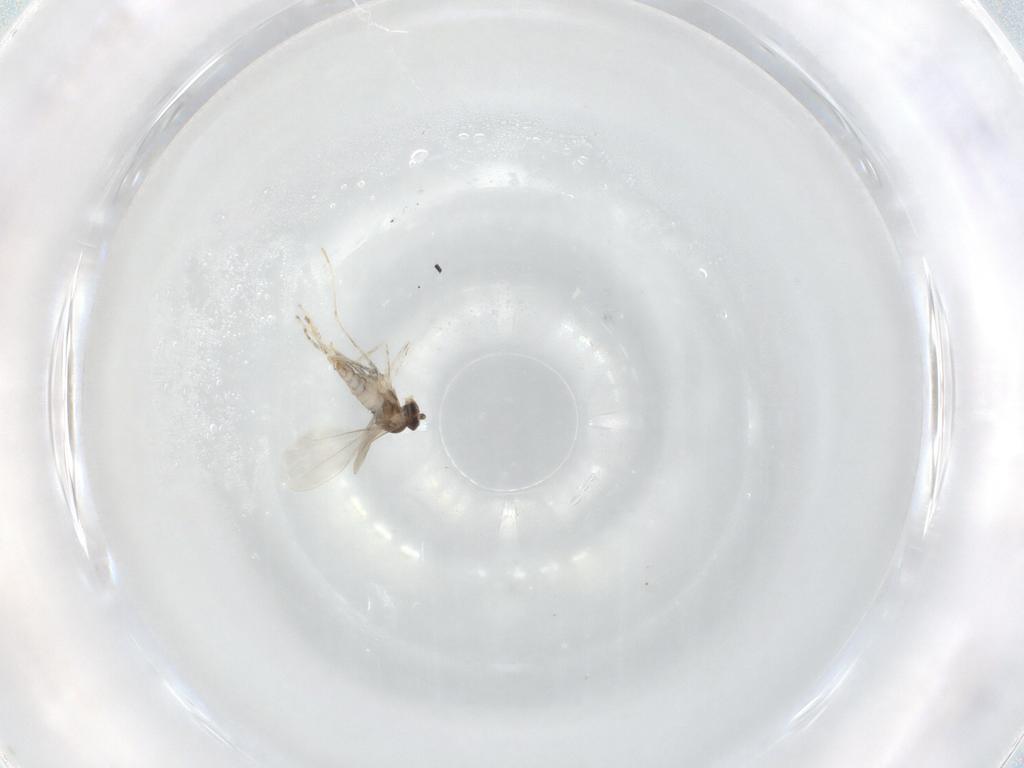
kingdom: Animalia
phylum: Arthropoda
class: Insecta
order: Diptera
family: Cecidomyiidae
